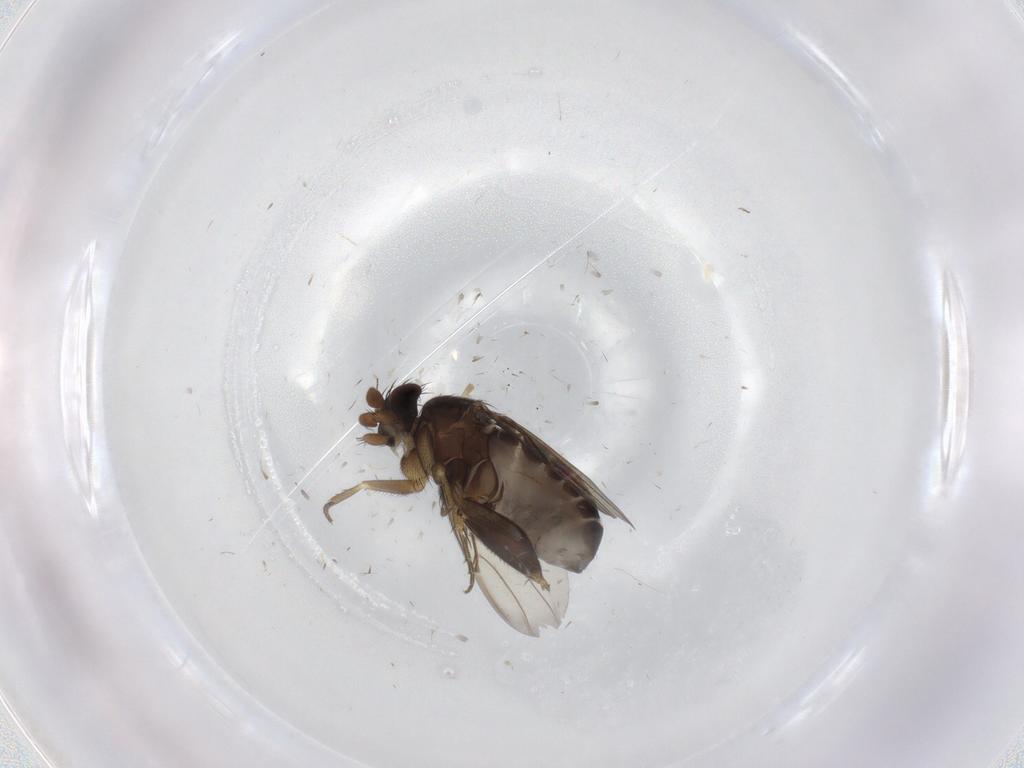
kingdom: Animalia
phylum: Arthropoda
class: Insecta
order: Diptera
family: Phoridae
